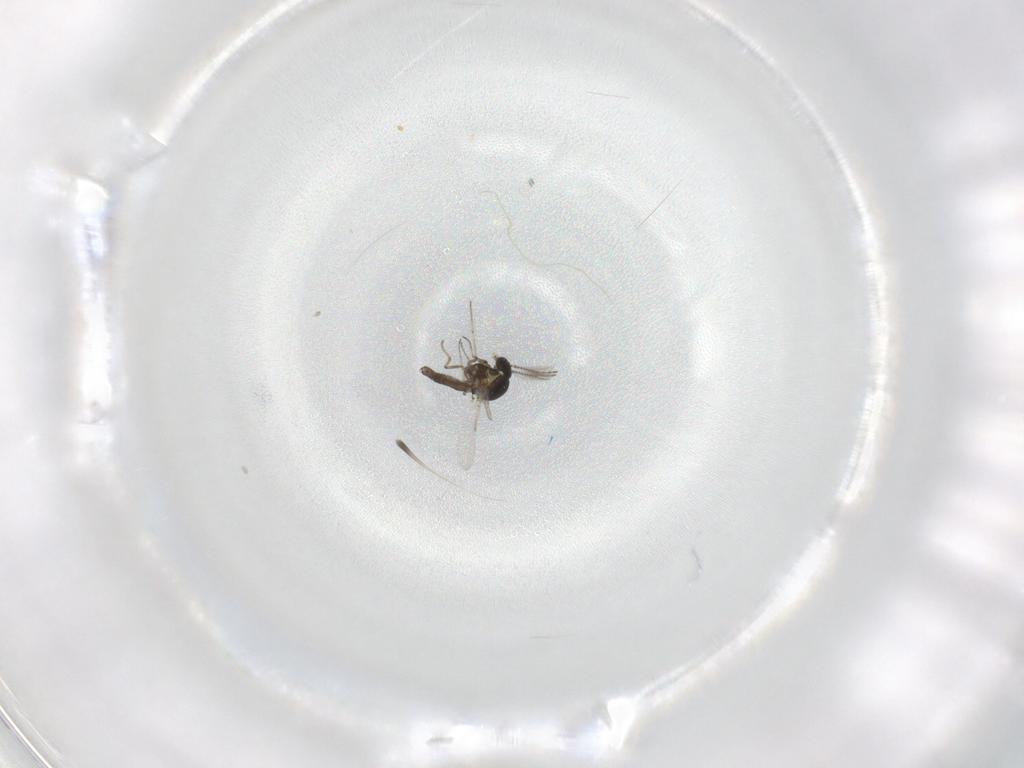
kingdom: Animalia
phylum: Arthropoda
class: Insecta
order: Diptera
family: Ceratopogonidae
